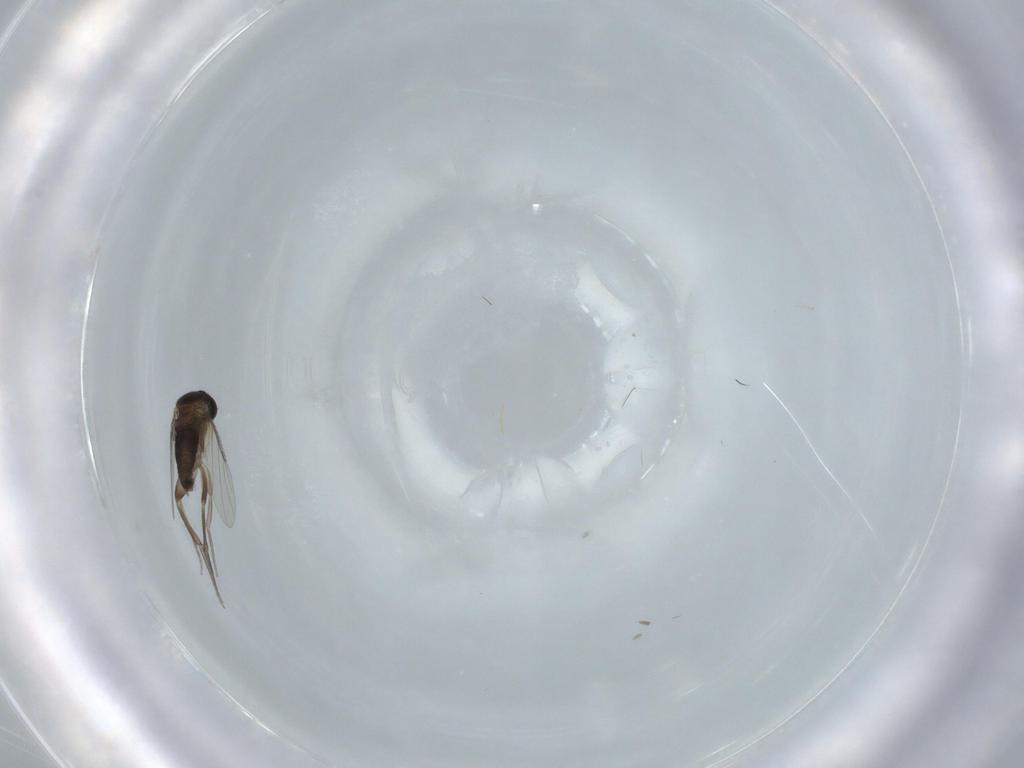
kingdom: Animalia
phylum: Arthropoda
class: Insecta
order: Diptera
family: Phoridae
